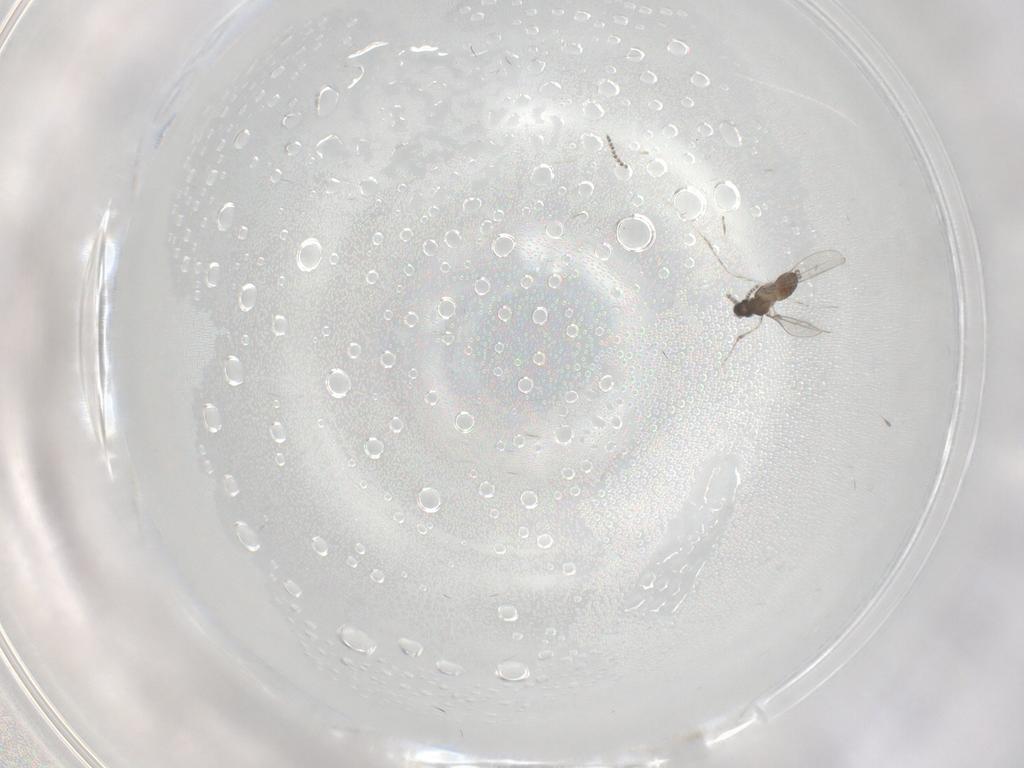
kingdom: Animalia
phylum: Arthropoda
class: Insecta
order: Diptera
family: Cecidomyiidae
